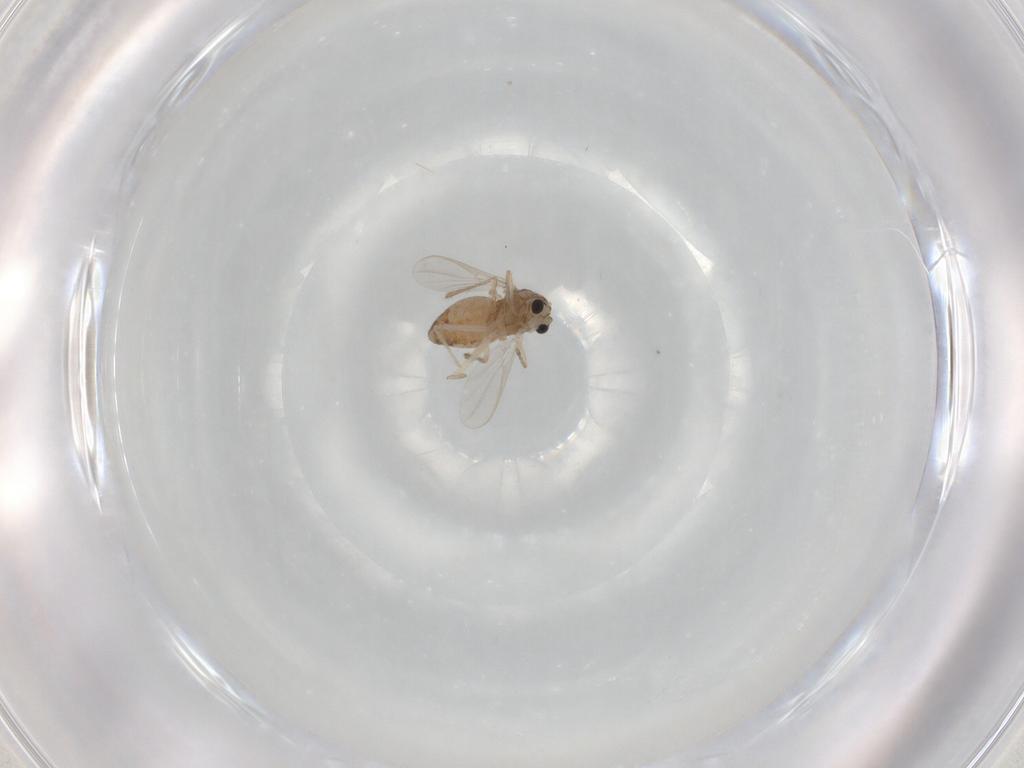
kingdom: Animalia
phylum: Arthropoda
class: Insecta
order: Diptera
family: Chironomidae
